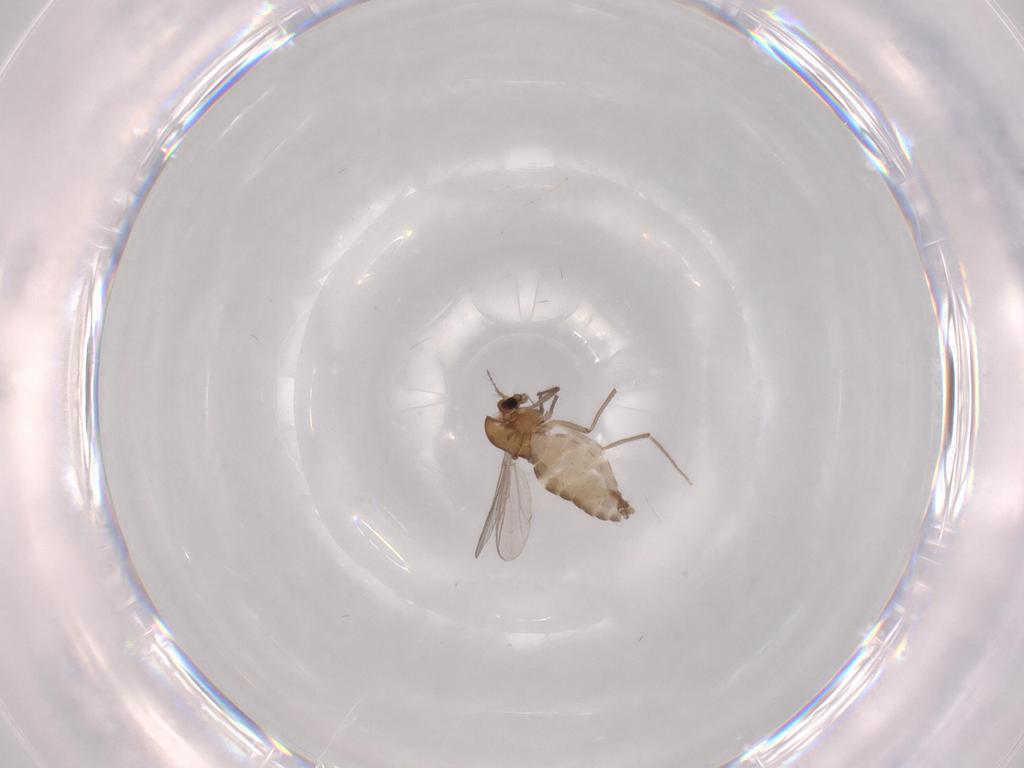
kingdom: Animalia
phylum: Arthropoda
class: Insecta
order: Diptera
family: Chironomidae
